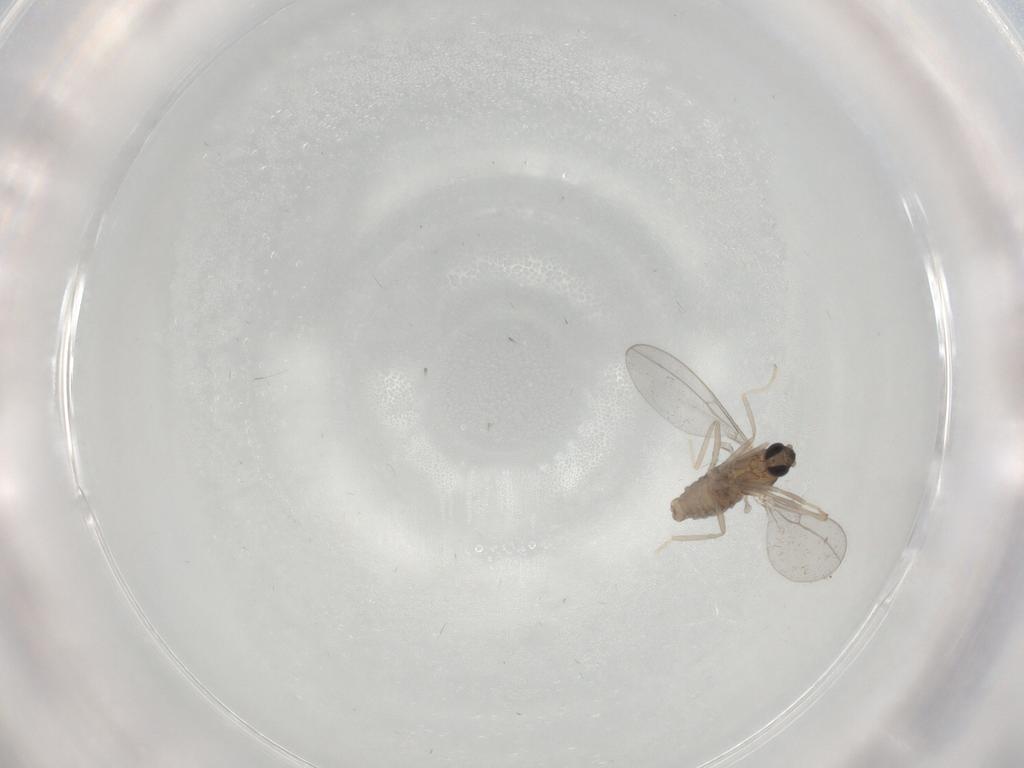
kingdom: Animalia
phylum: Arthropoda
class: Insecta
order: Diptera
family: Cecidomyiidae
